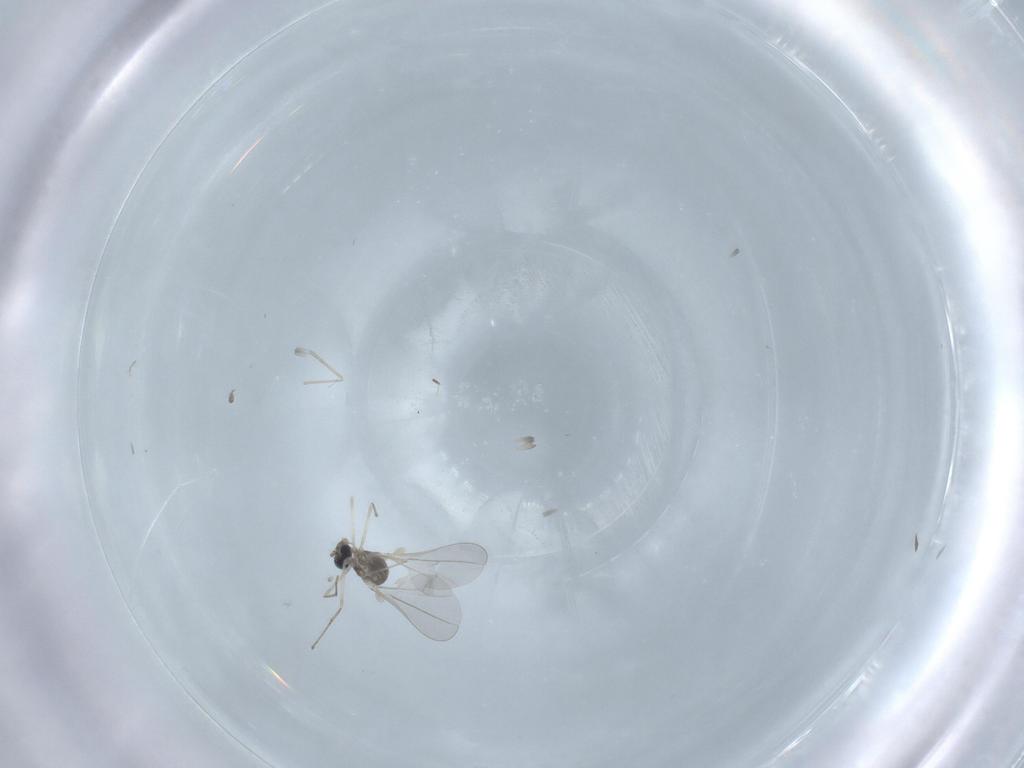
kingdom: Animalia
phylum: Arthropoda
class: Insecta
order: Diptera
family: Cecidomyiidae
